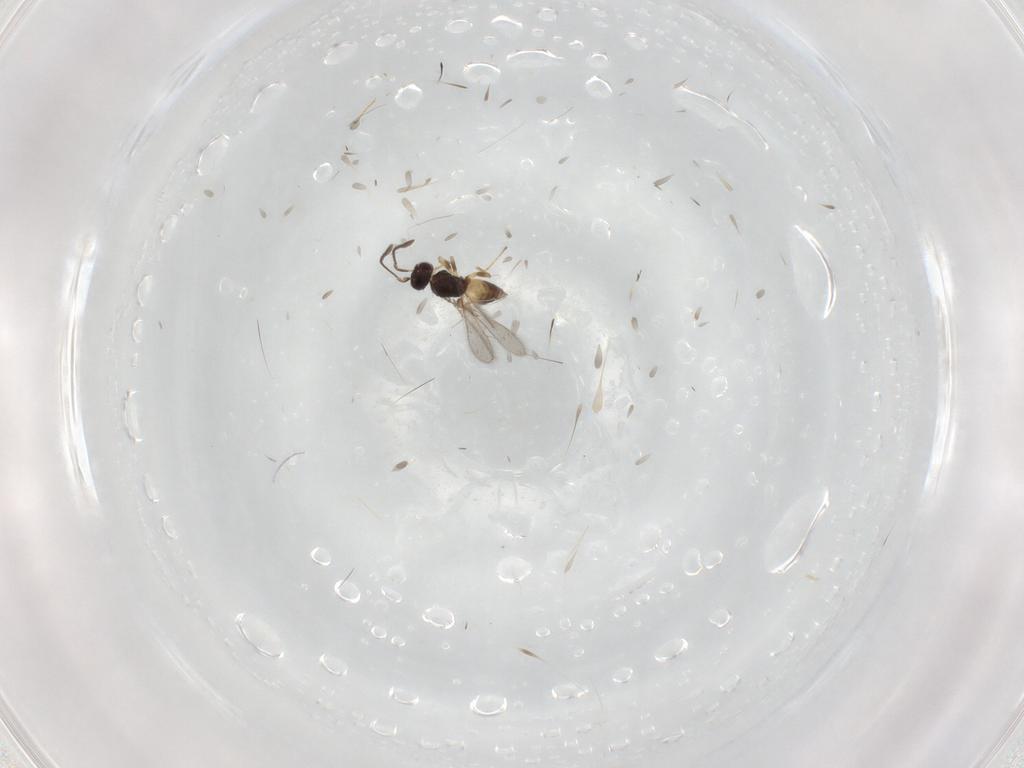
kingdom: Animalia
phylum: Arthropoda
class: Insecta
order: Hymenoptera
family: Mymaridae
